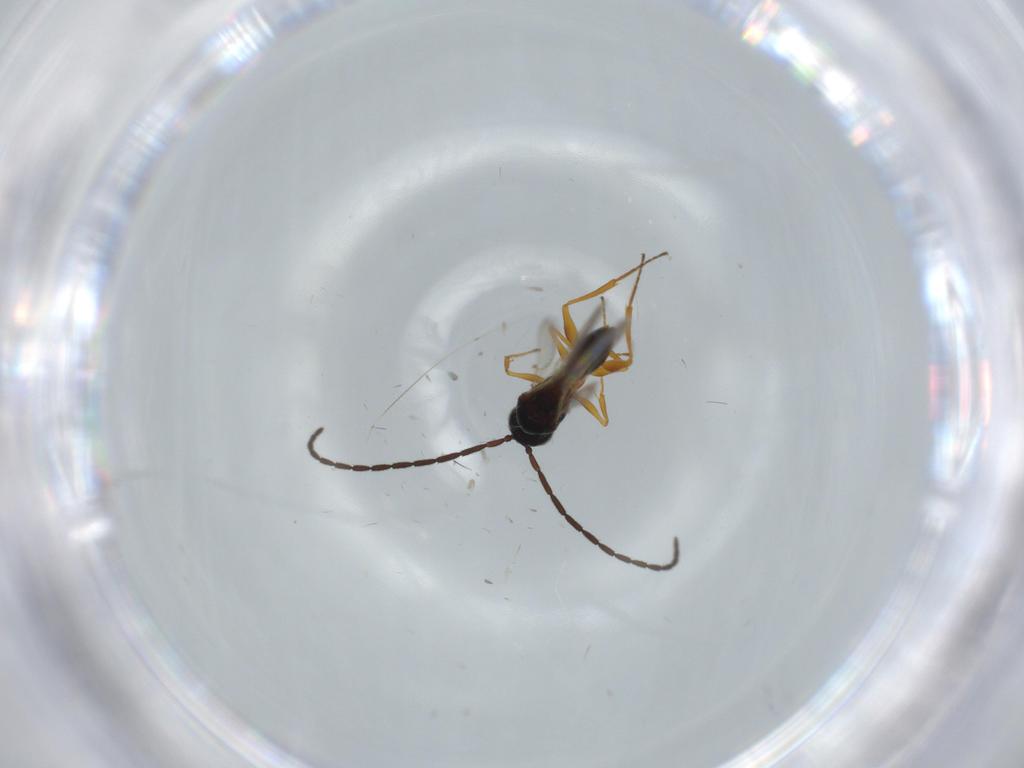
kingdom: Animalia
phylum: Arthropoda
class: Insecta
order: Hymenoptera
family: Figitidae
